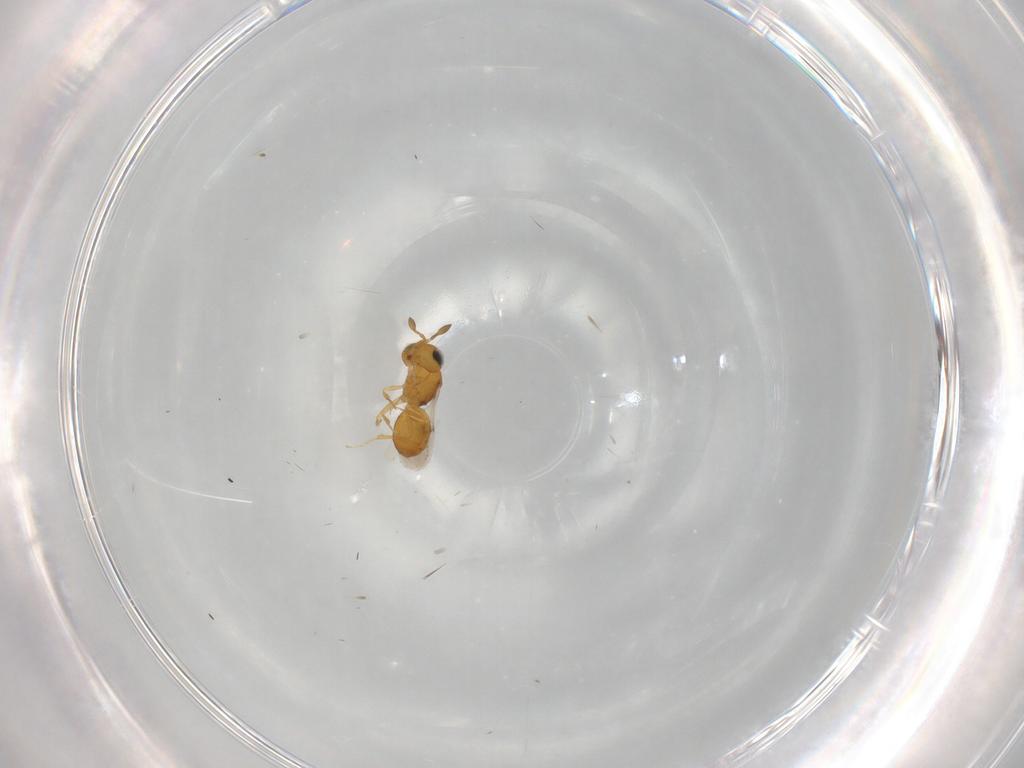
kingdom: Animalia
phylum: Arthropoda
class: Insecta
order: Hymenoptera
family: Scelionidae
